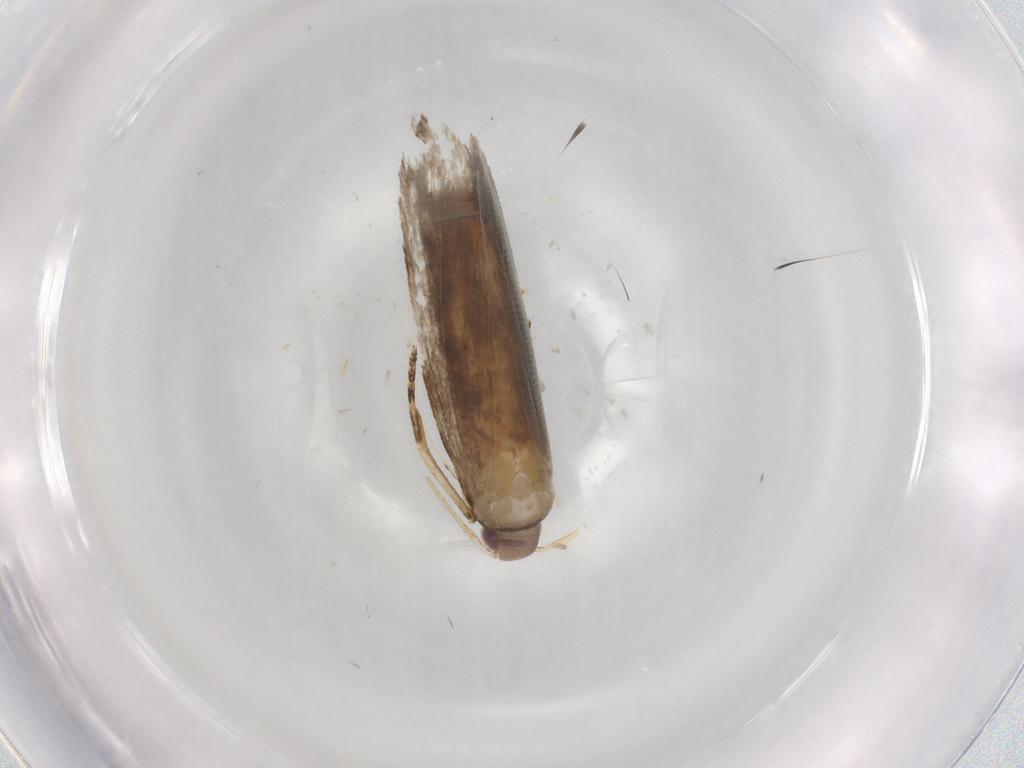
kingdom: Animalia
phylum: Arthropoda
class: Insecta
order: Lepidoptera
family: Gelechiidae
